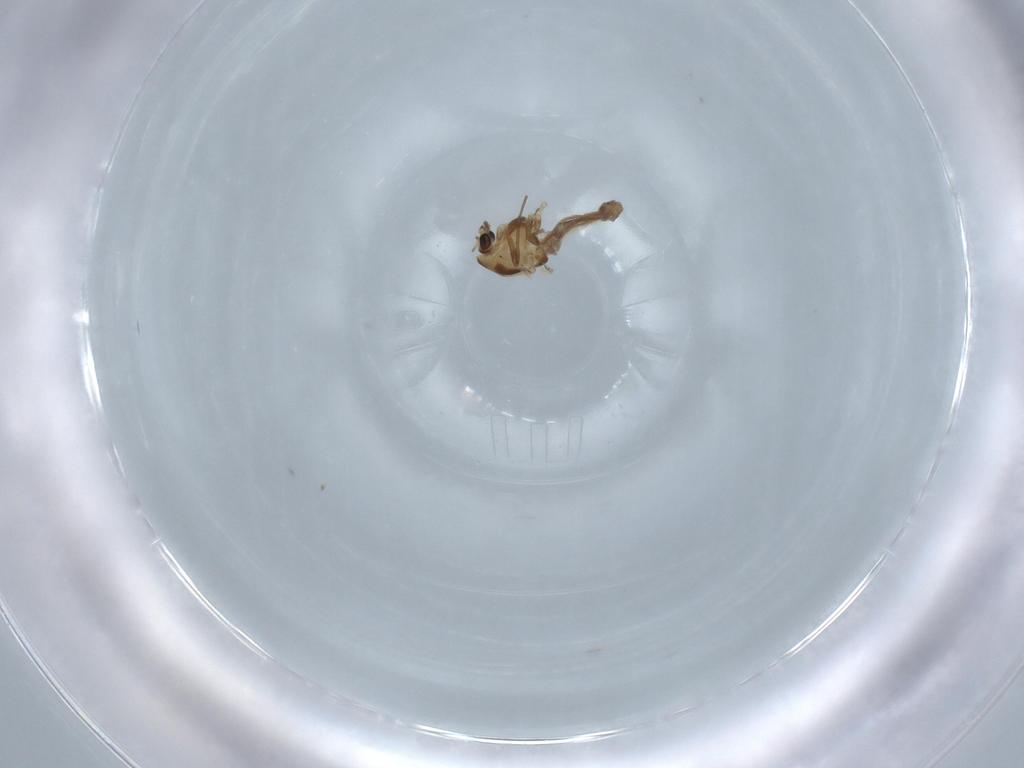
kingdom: Animalia
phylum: Arthropoda
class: Insecta
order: Diptera
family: Chironomidae
